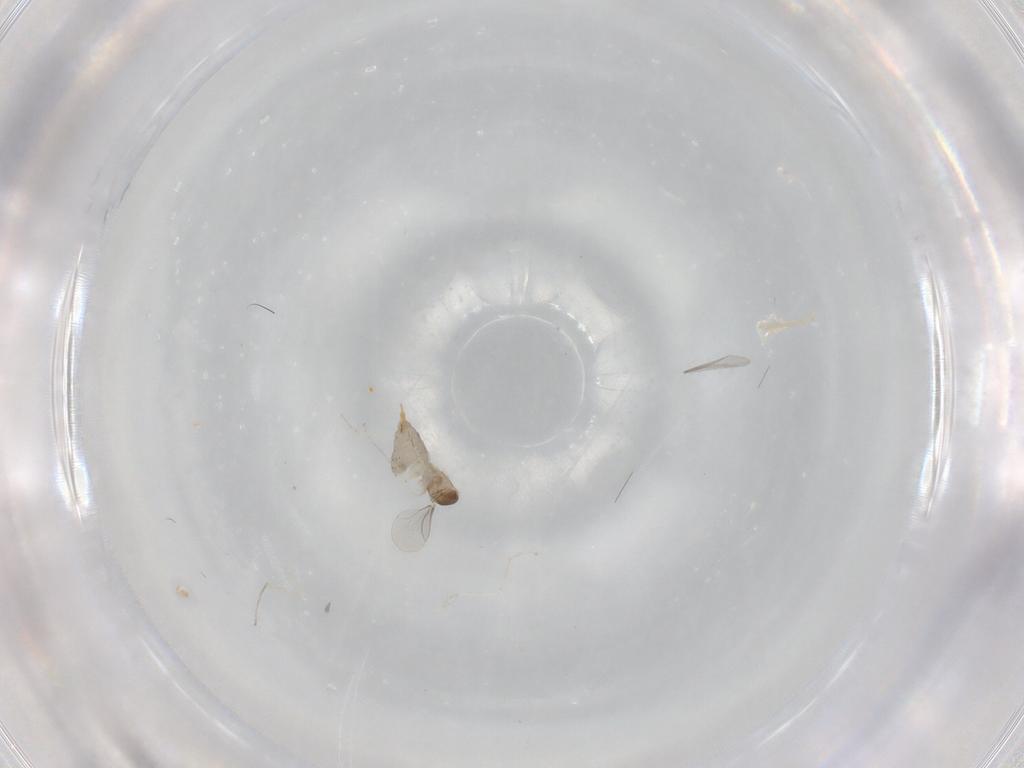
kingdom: Animalia
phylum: Arthropoda
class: Insecta
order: Diptera
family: Cecidomyiidae
